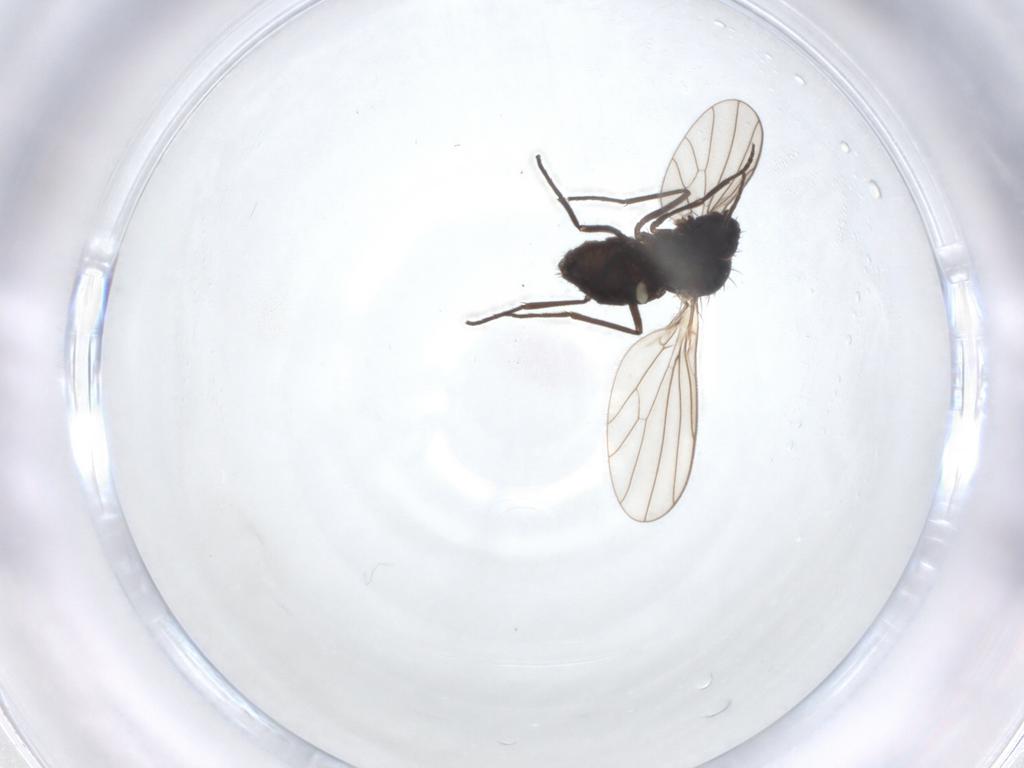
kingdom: Animalia
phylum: Arthropoda
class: Insecta
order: Diptera
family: Dolichopodidae
